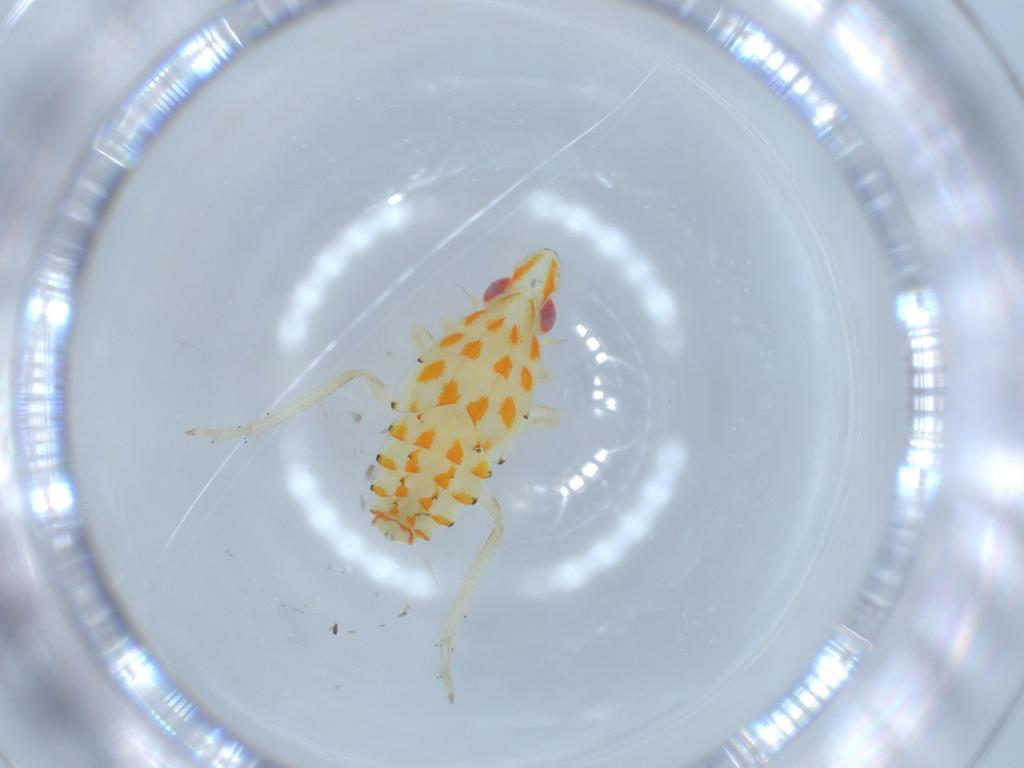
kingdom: Animalia
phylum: Arthropoda
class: Insecta
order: Hemiptera
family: Tropiduchidae
